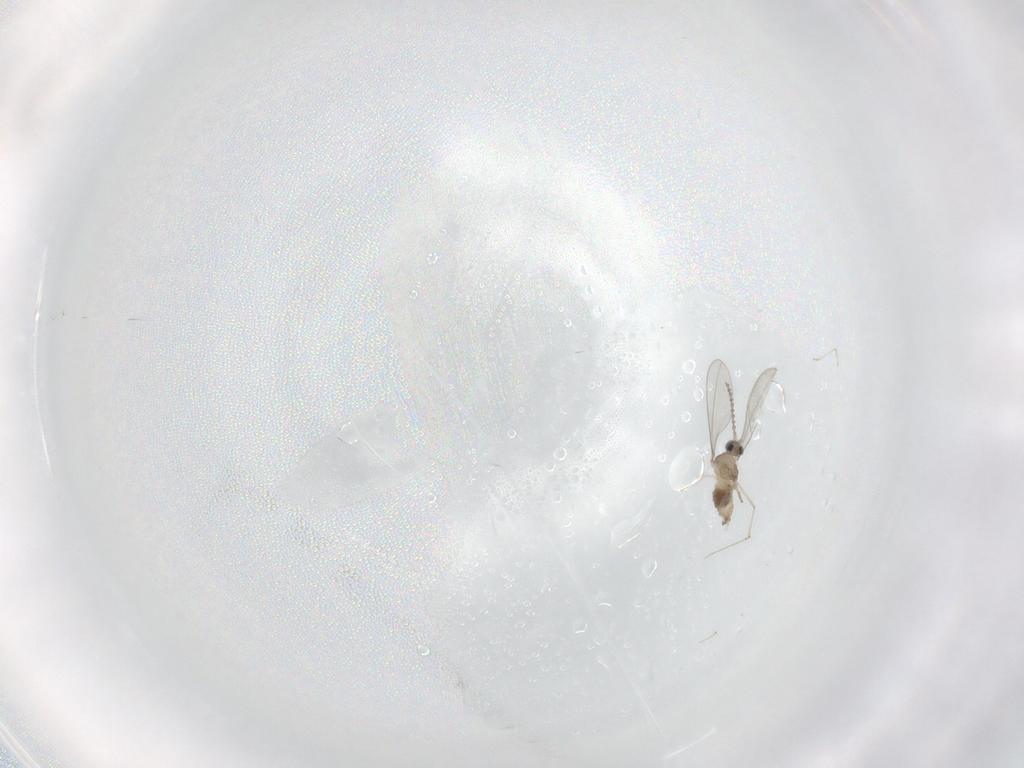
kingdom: Animalia
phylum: Arthropoda
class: Insecta
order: Diptera
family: Cecidomyiidae
